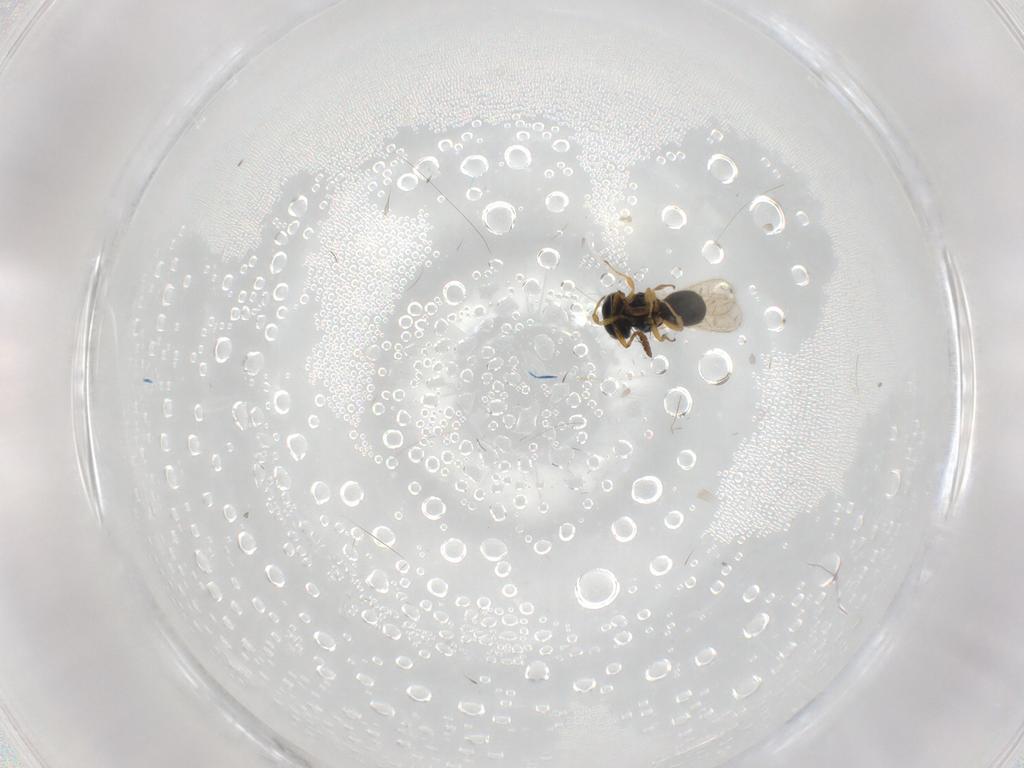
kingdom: Animalia
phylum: Arthropoda
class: Insecta
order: Hymenoptera
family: Scelionidae
